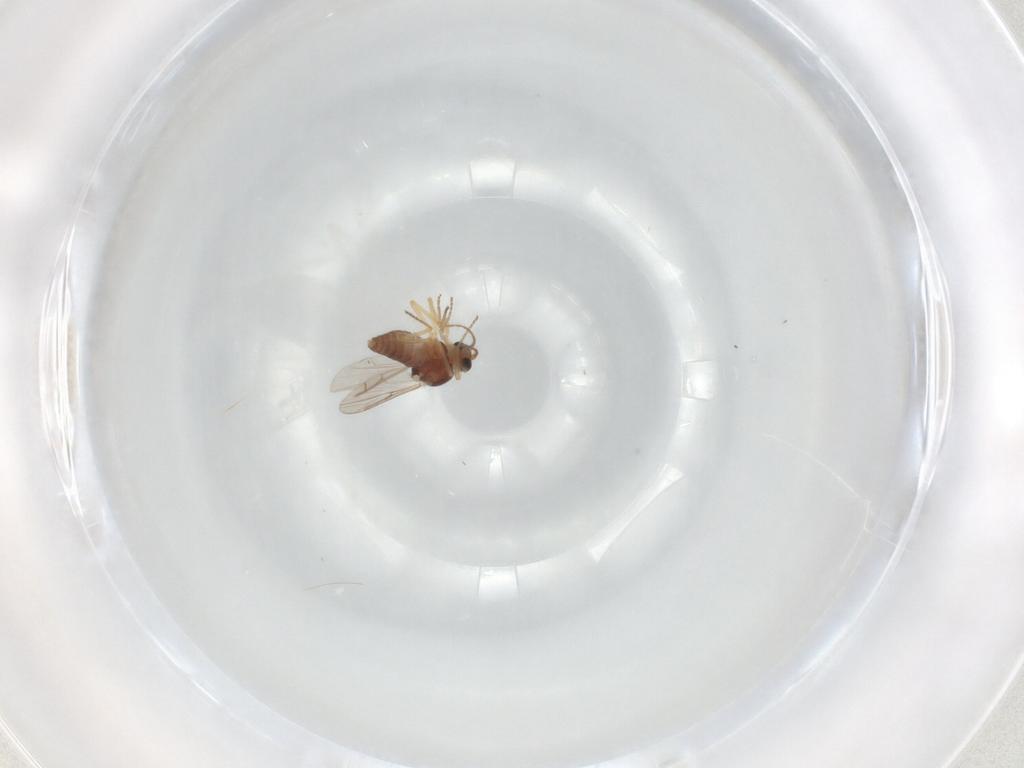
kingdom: Animalia
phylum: Arthropoda
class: Insecta
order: Diptera
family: Ceratopogonidae
